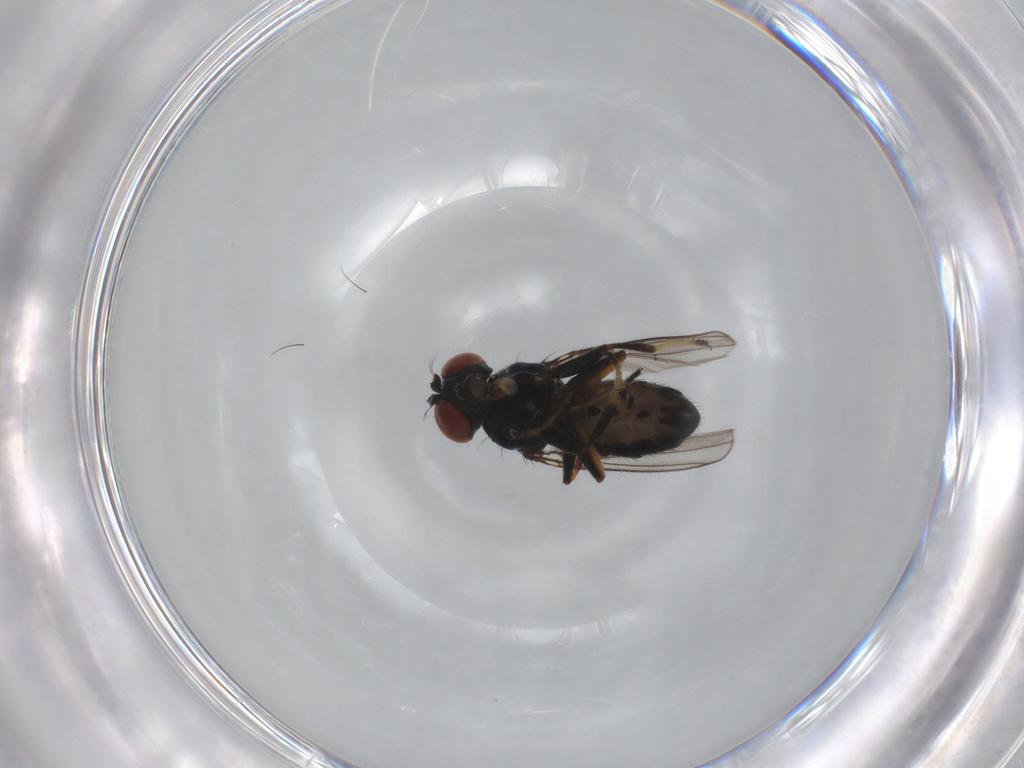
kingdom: Animalia
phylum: Arthropoda
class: Insecta
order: Diptera
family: Ephydridae
